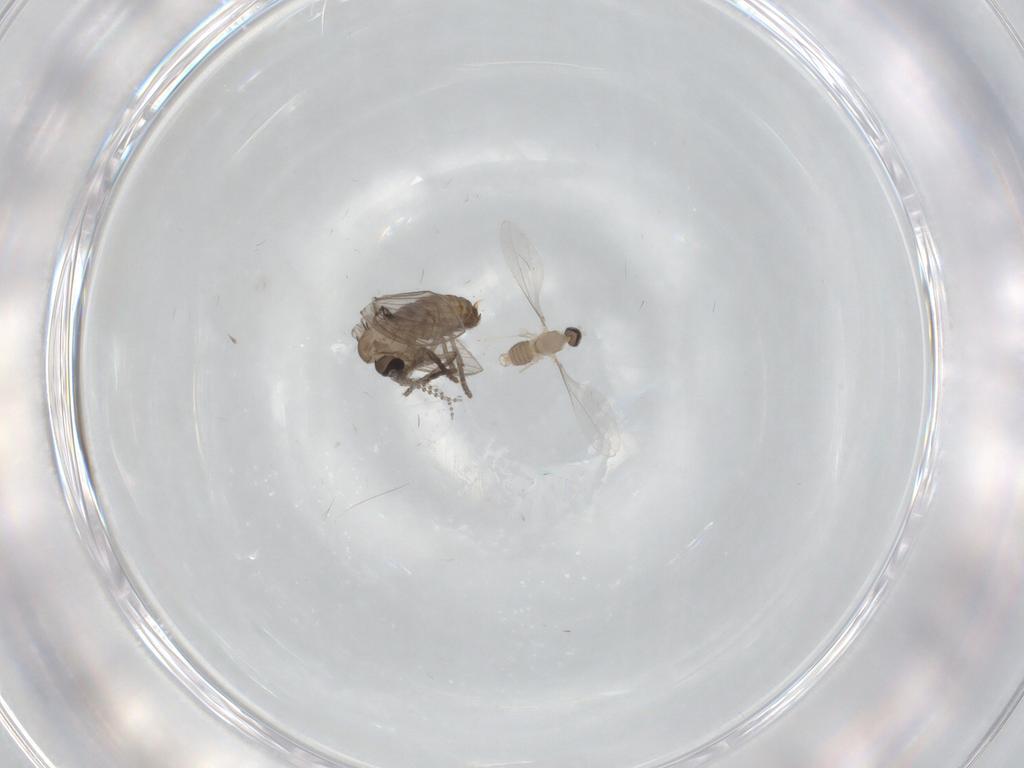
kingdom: Animalia
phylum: Arthropoda
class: Insecta
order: Diptera
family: Psychodidae
